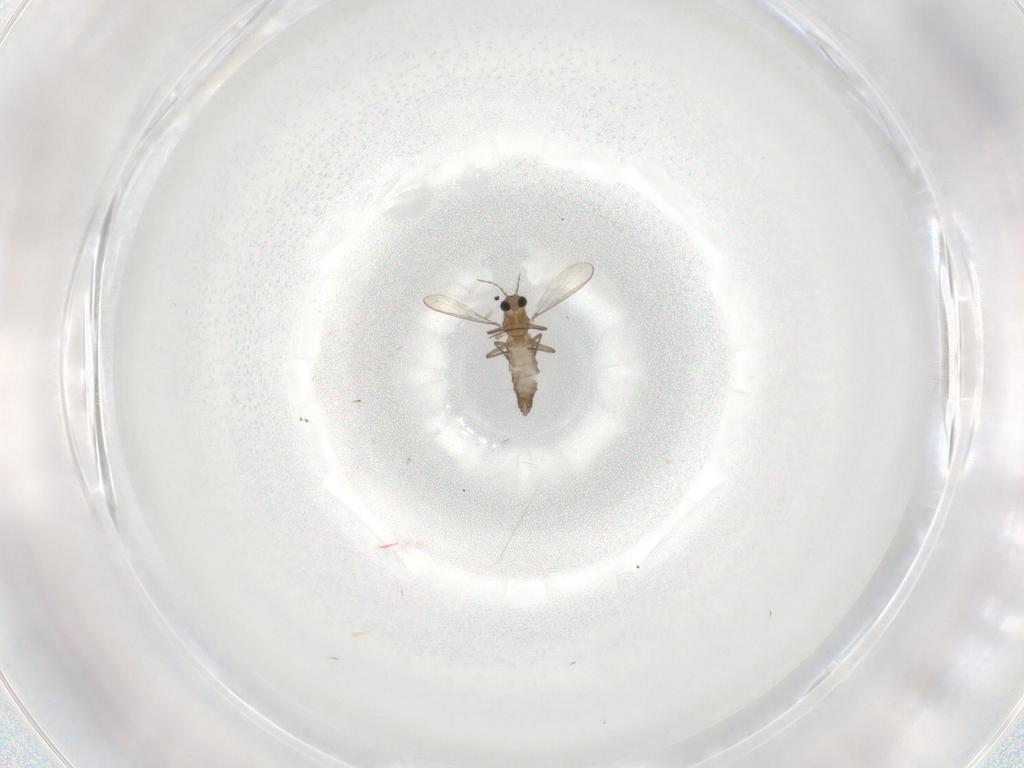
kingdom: Animalia
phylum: Arthropoda
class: Insecta
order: Diptera
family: Chironomidae
